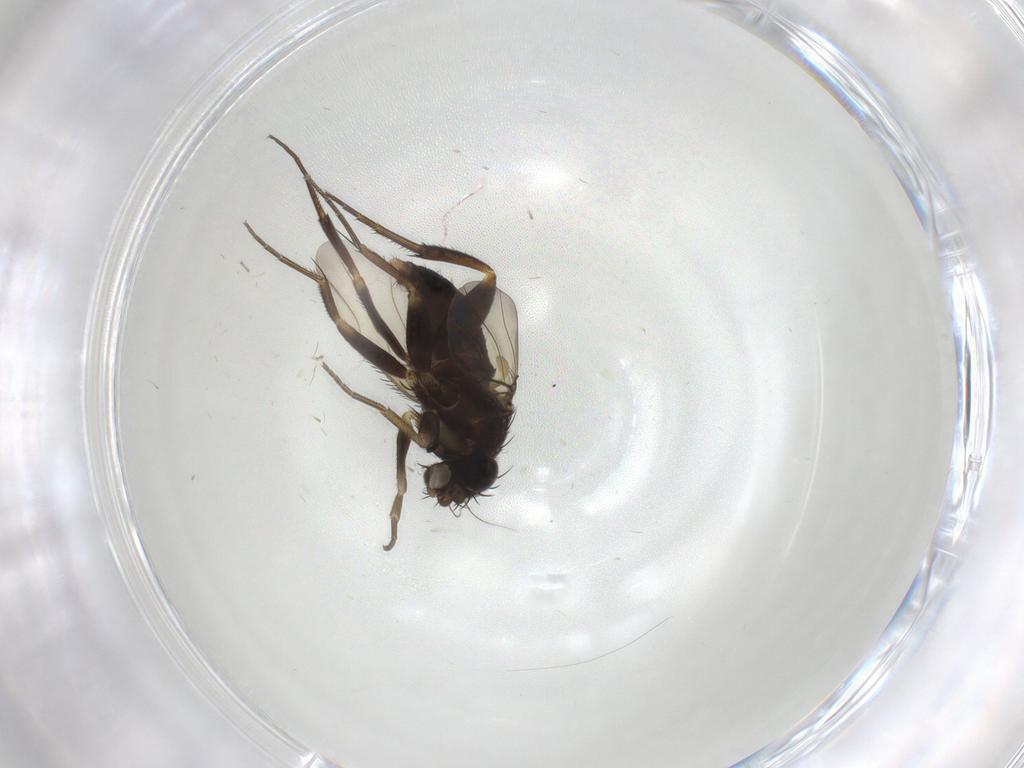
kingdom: Animalia
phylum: Arthropoda
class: Insecta
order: Diptera
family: Phoridae
